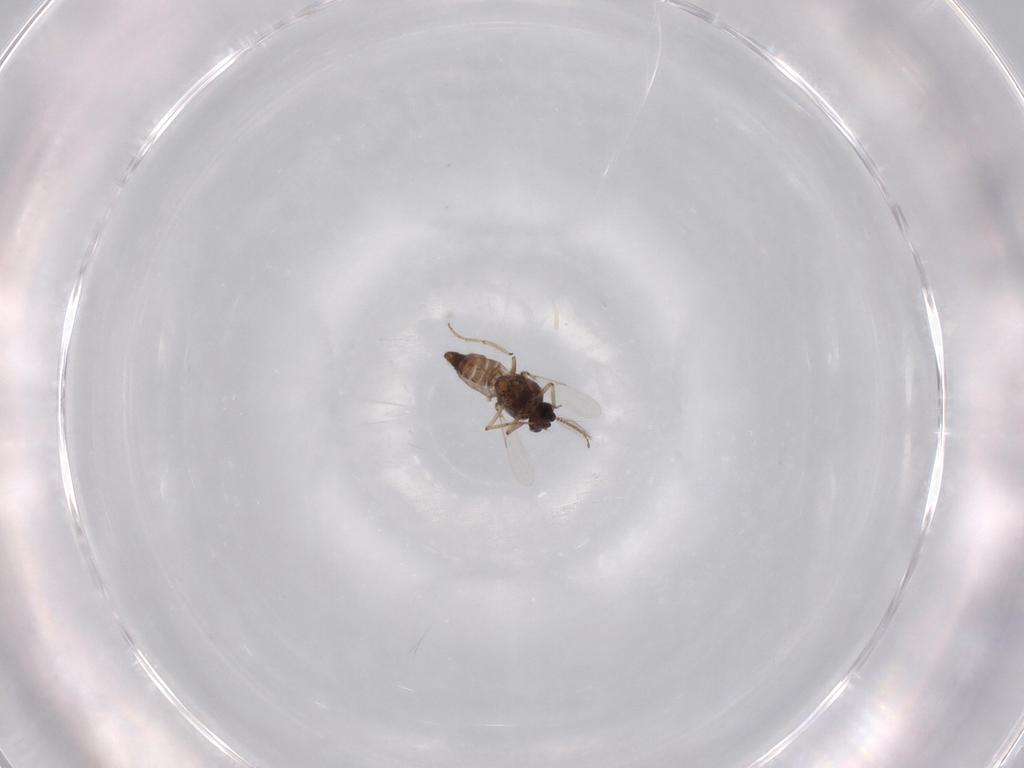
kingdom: Animalia
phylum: Arthropoda
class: Insecta
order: Diptera
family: Ceratopogonidae
